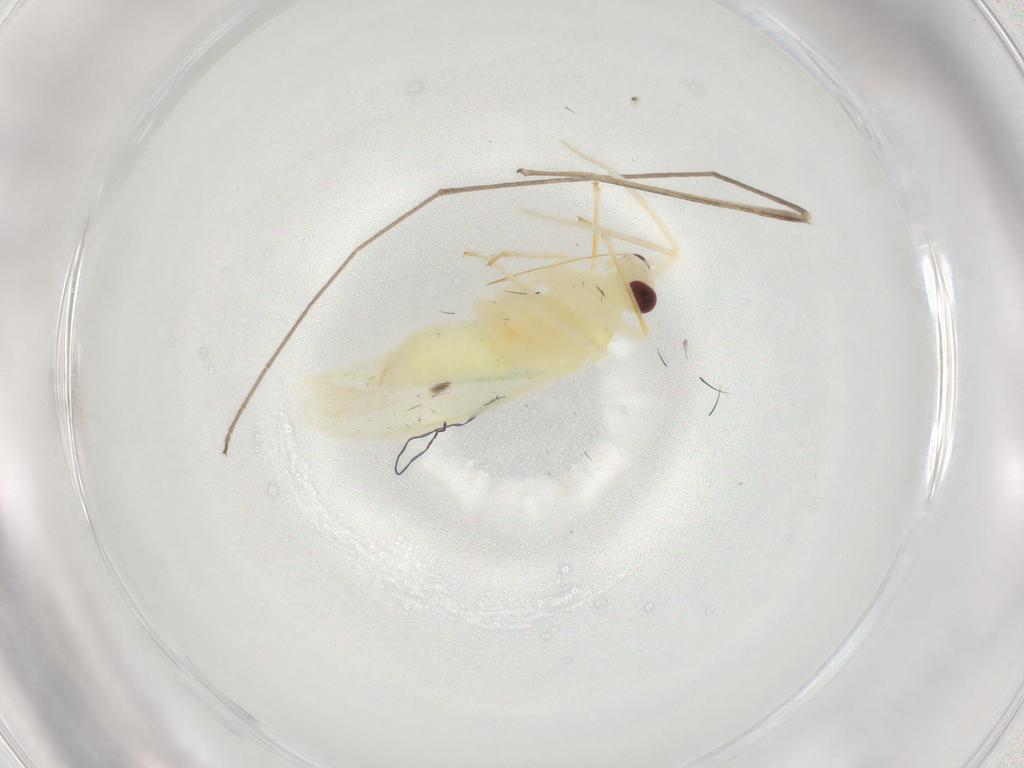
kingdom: Animalia
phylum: Arthropoda
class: Insecta
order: Hemiptera
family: Miridae
